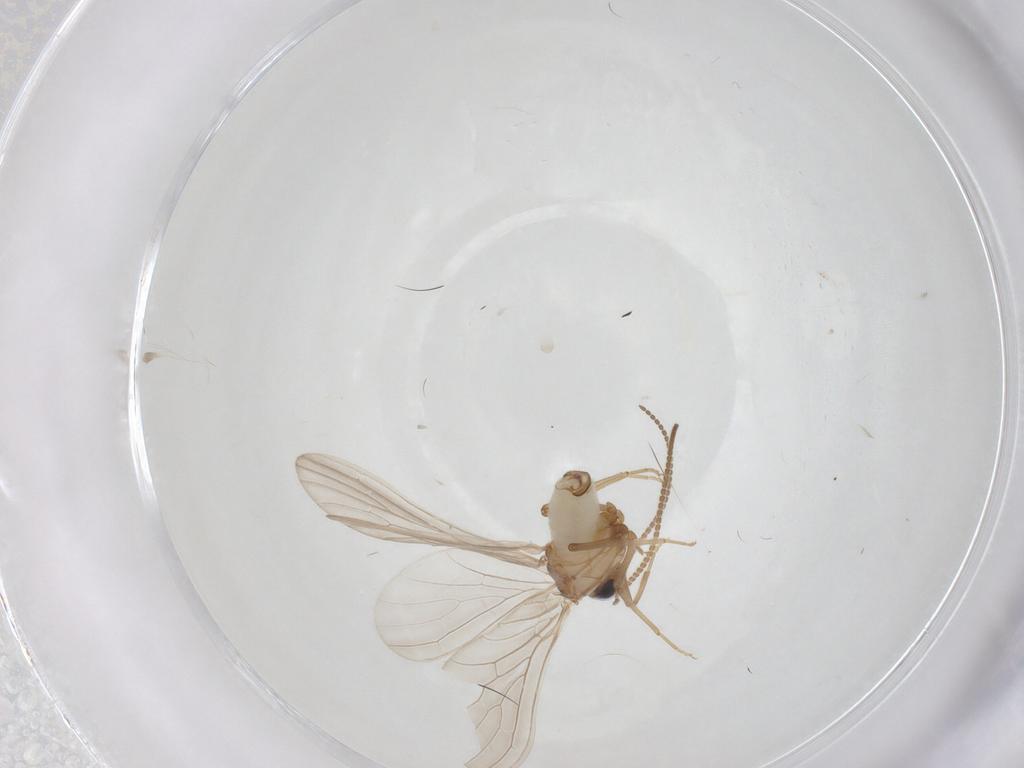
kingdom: Animalia
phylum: Arthropoda
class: Insecta
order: Neuroptera
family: Coniopterygidae
